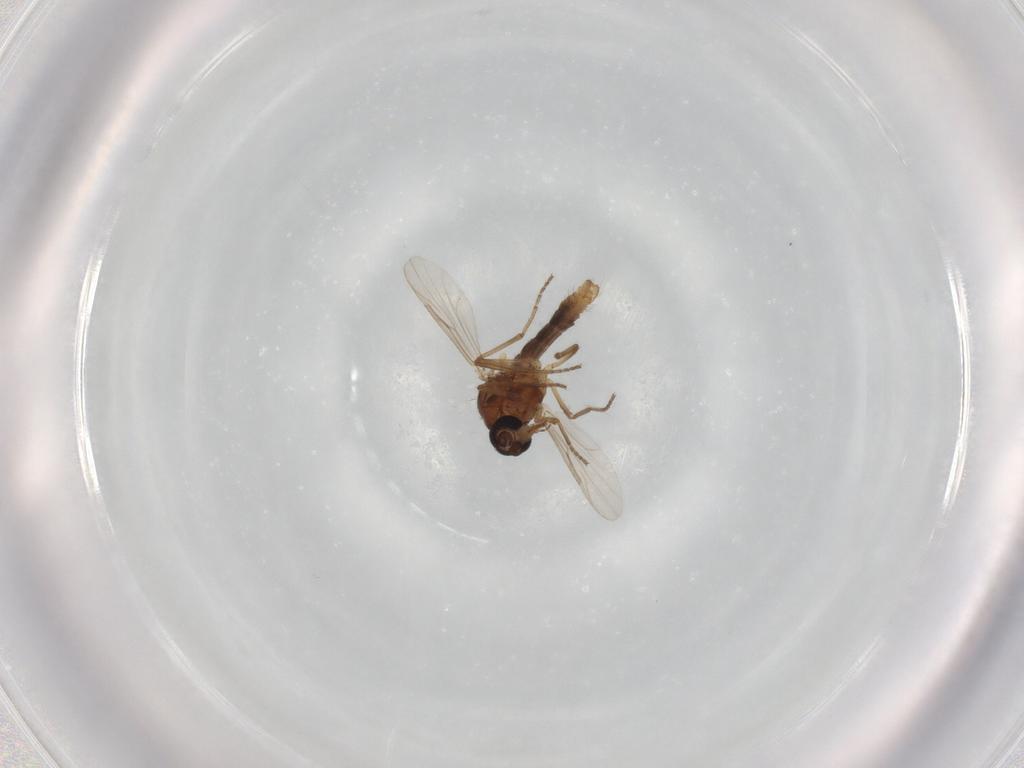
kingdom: Animalia
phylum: Arthropoda
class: Insecta
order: Diptera
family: Ceratopogonidae
